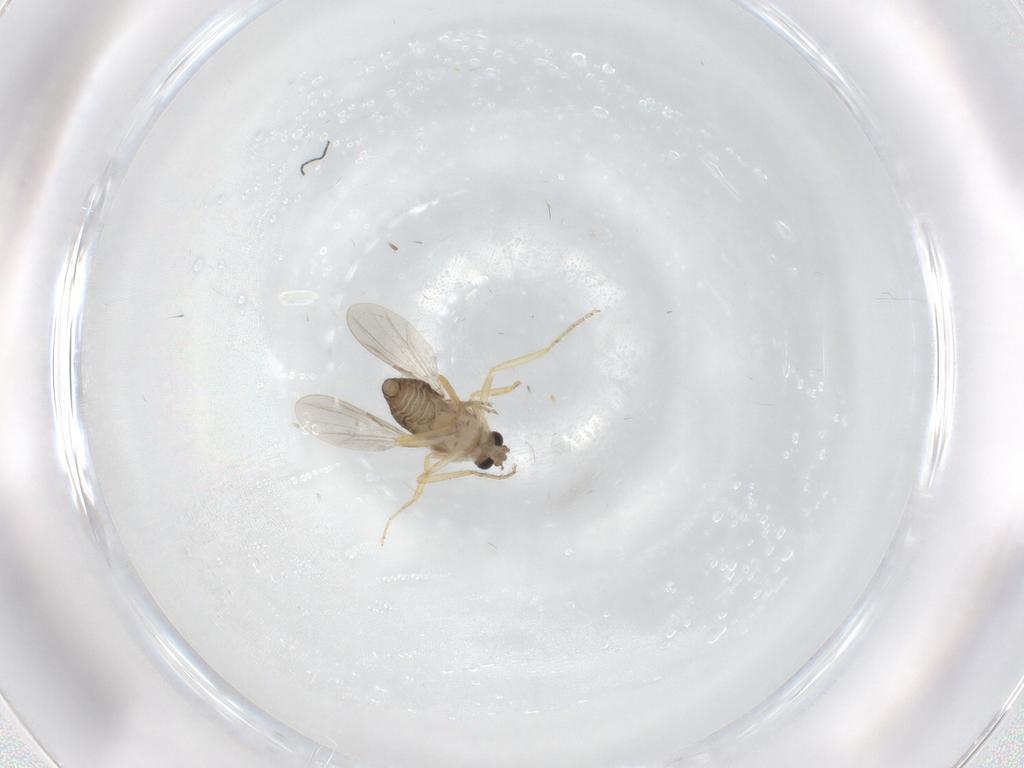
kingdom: Animalia
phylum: Arthropoda
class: Insecta
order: Diptera
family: Ceratopogonidae
